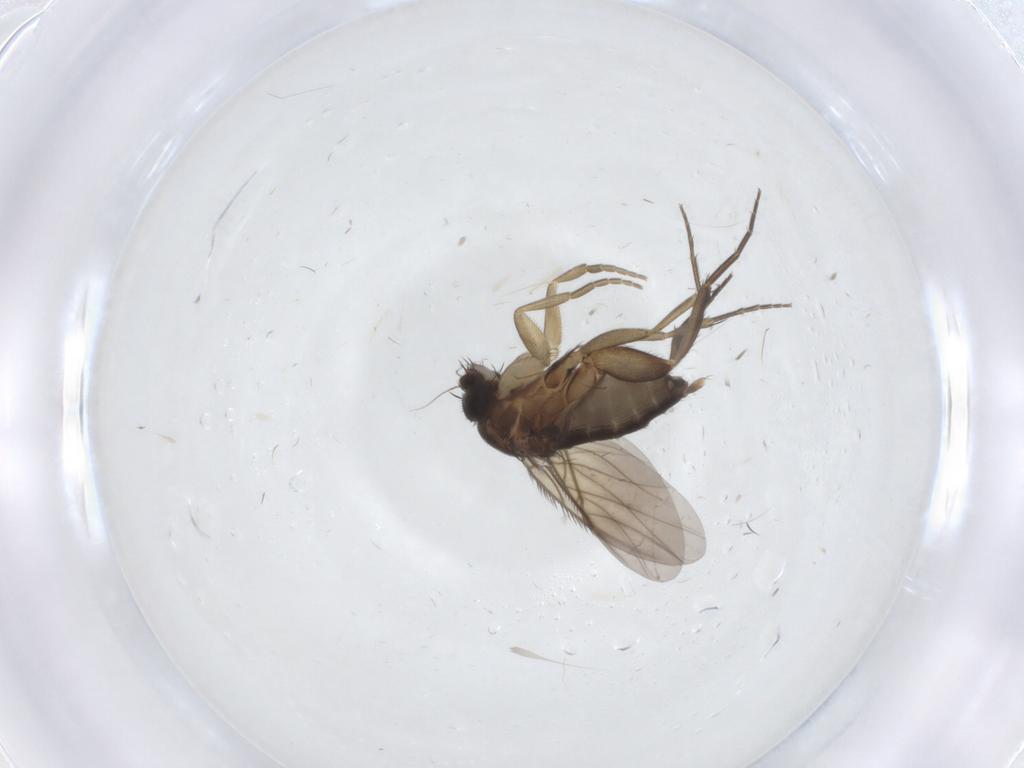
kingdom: Animalia
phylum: Arthropoda
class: Insecta
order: Diptera
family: Cecidomyiidae
